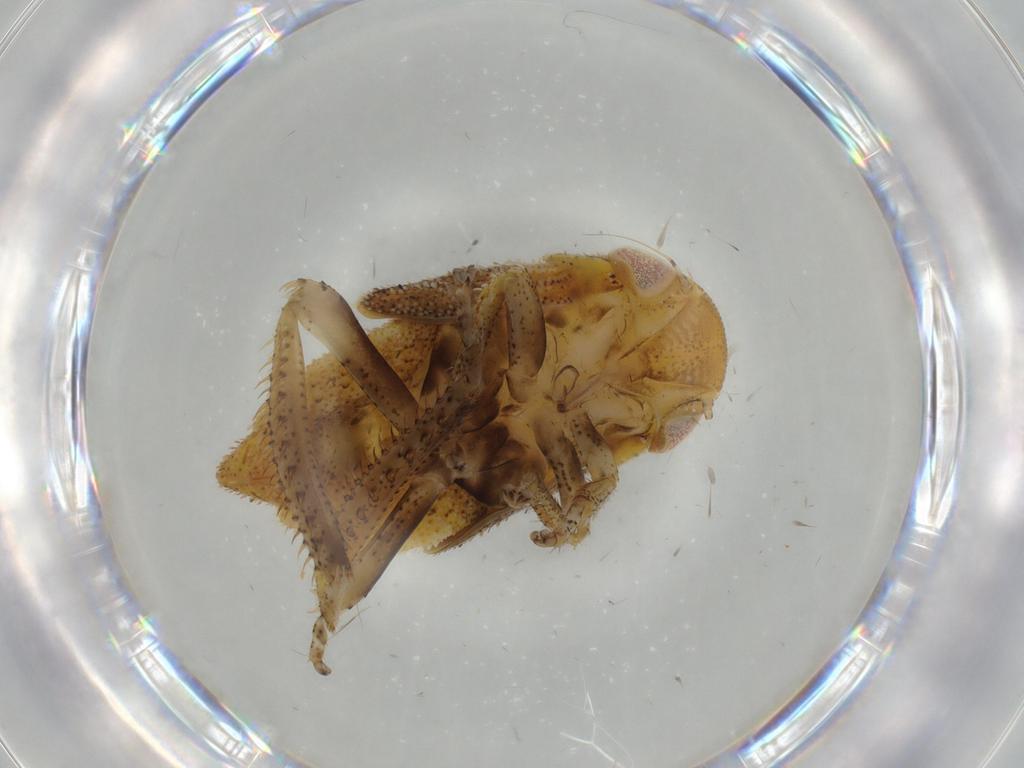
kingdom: Animalia
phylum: Arthropoda
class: Insecta
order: Hemiptera
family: Cicadellidae
